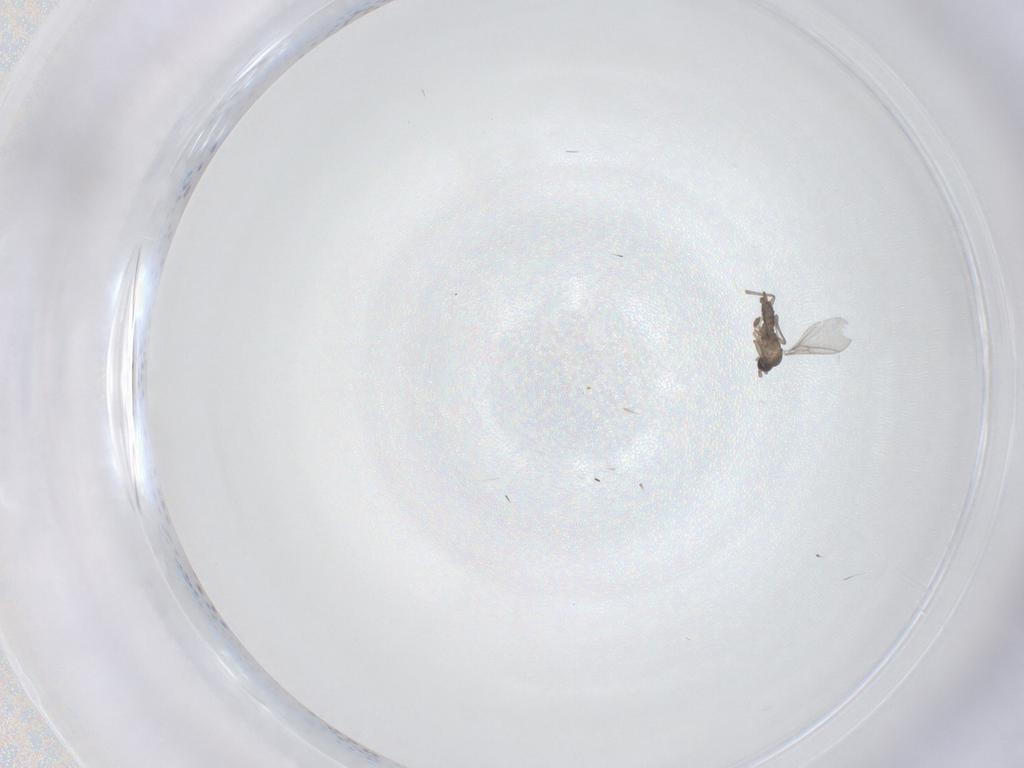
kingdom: Animalia
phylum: Arthropoda
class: Insecta
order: Diptera
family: Sciaridae
